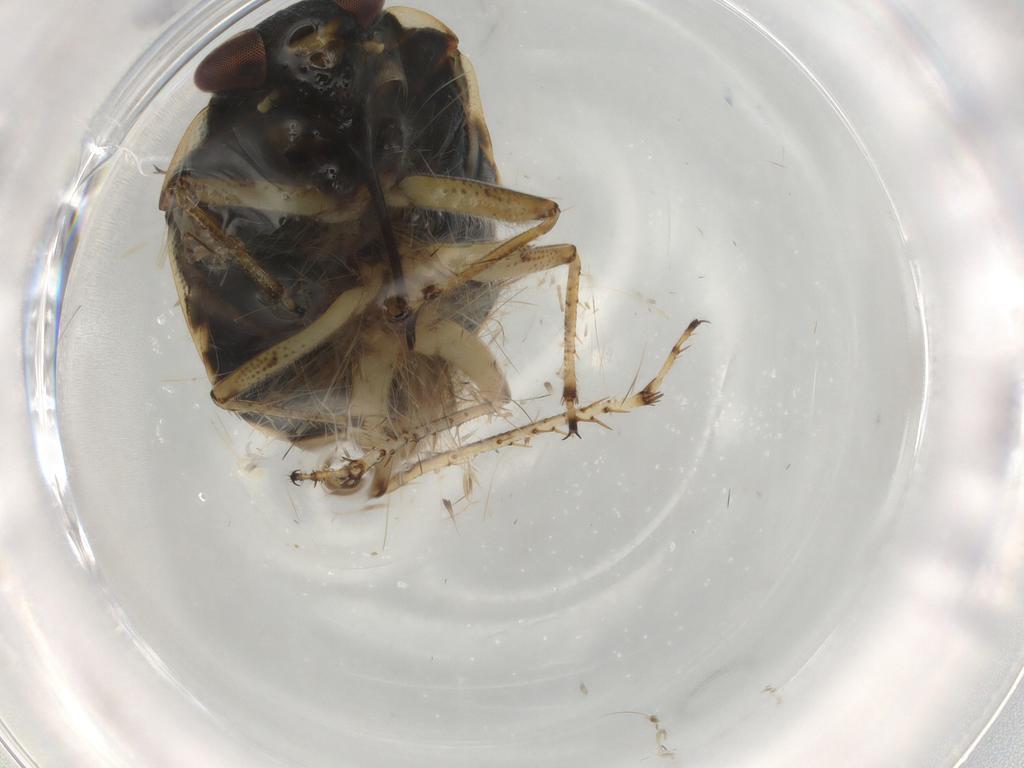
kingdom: Animalia
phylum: Arthropoda
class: Insecta
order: Hemiptera
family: Ochteridae
